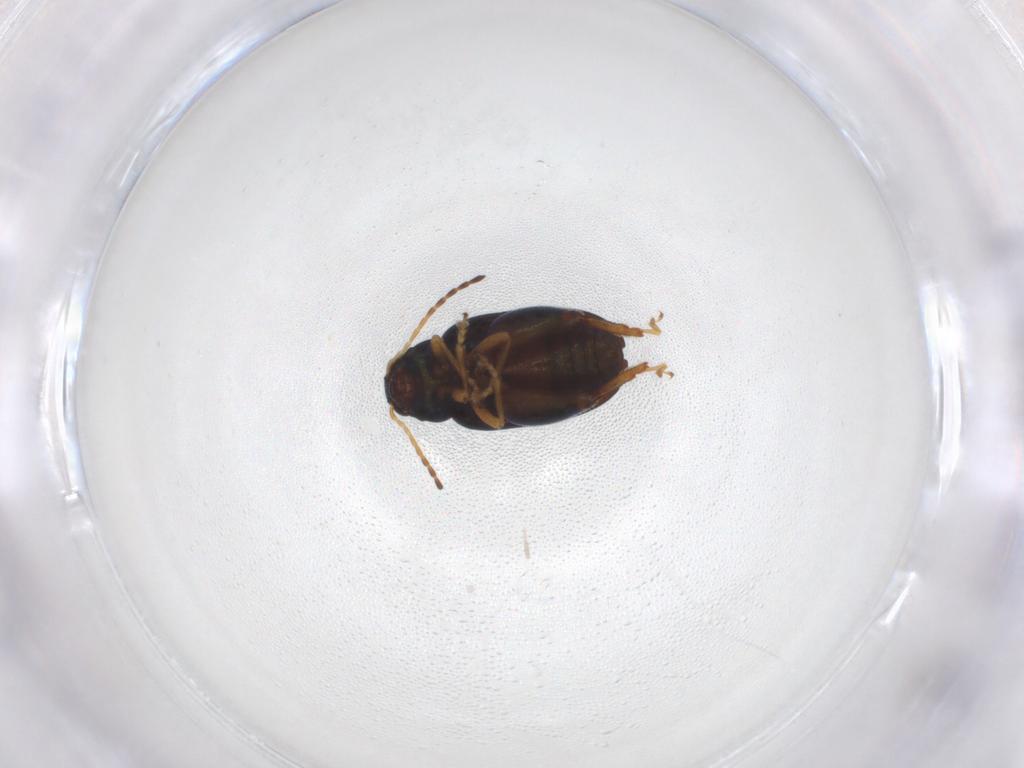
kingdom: Animalia
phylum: Arthropoda
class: Insecta
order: Coleoptera
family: Chrysomelidae
